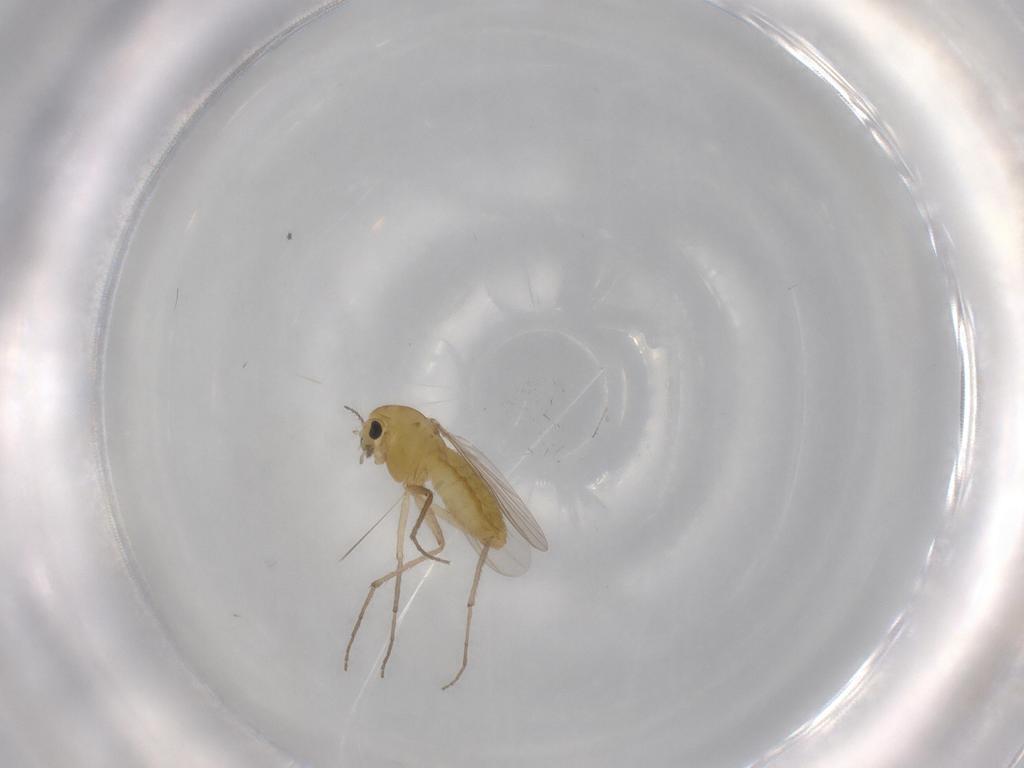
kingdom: Animalia
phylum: Arthropoda
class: Insecta
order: Diptera
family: Chironomidae
